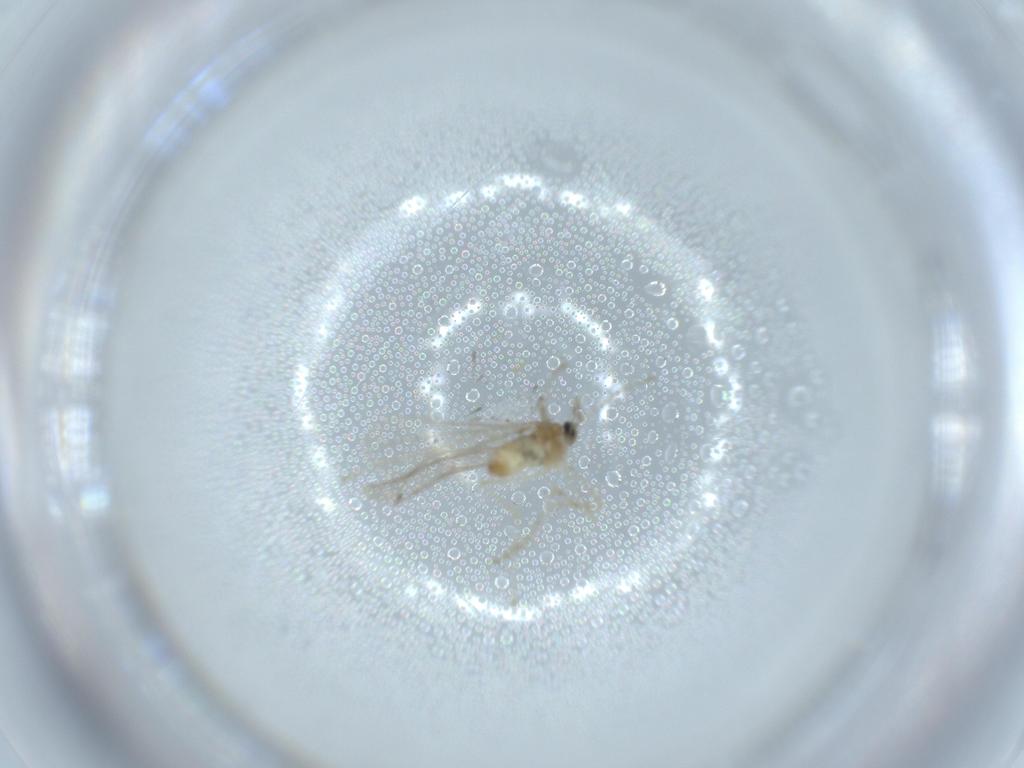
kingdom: Animalia
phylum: Arthropoda
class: Insecta
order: Diptera
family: Cecidomyiidae
